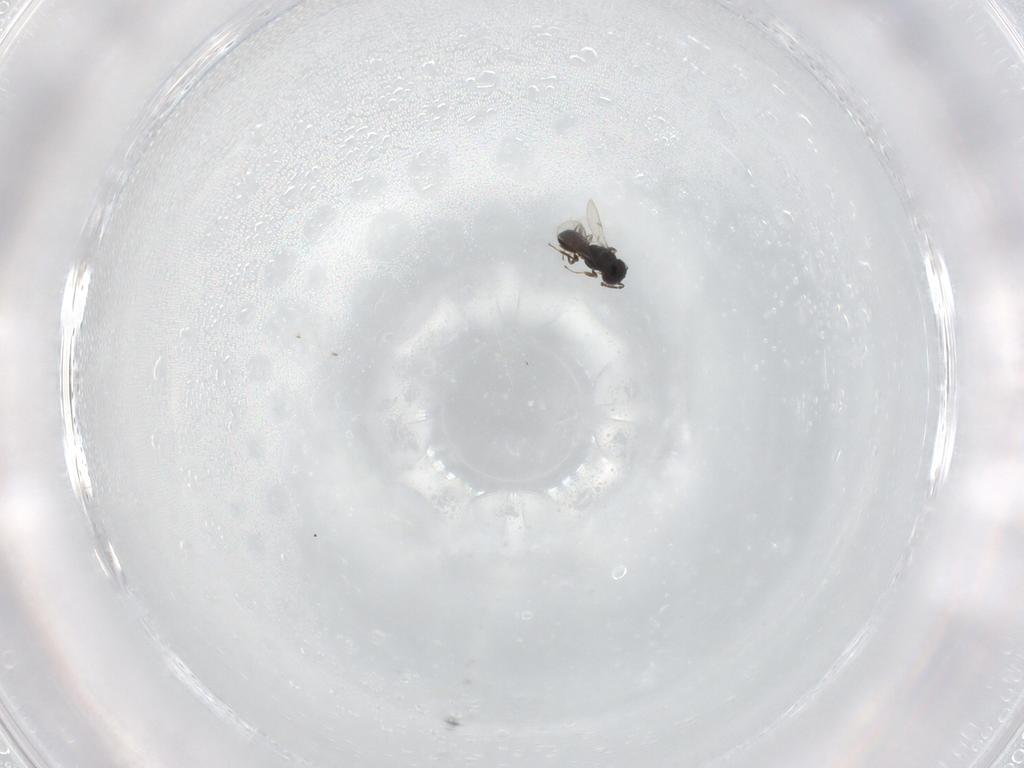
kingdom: Animalia
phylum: Arthropoda
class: Insecta
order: Hymenoptera
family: Scelionidae
